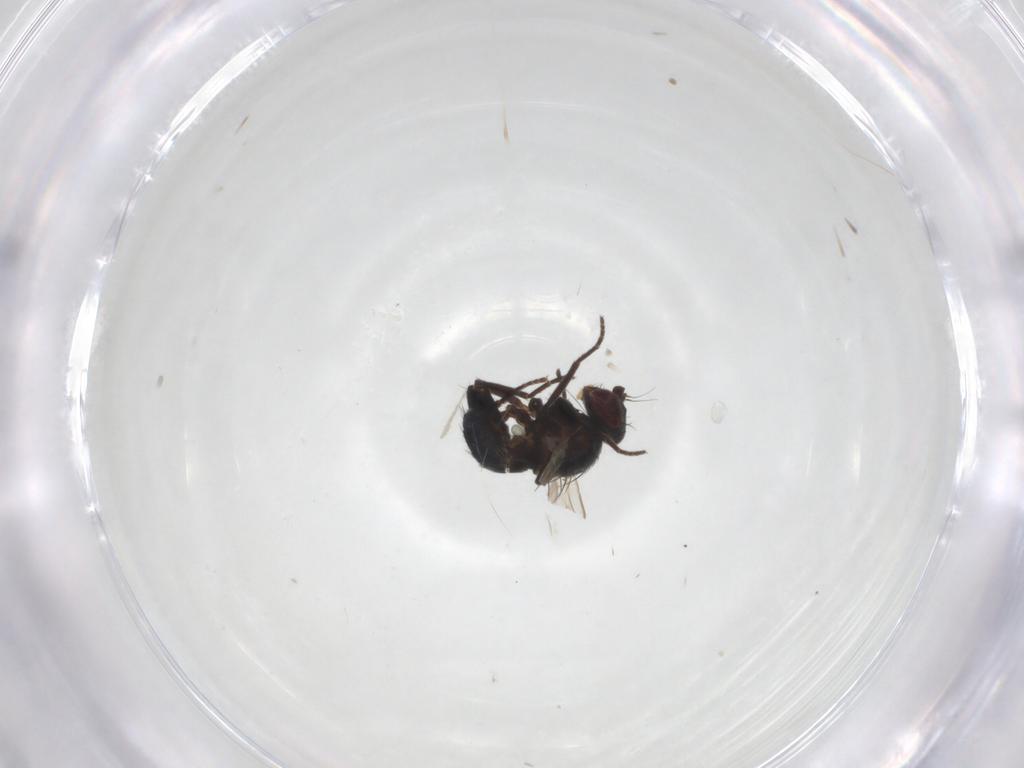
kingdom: Animalia
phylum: Arthropoda
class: Insecta
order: Diptera
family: Agromyzidae
